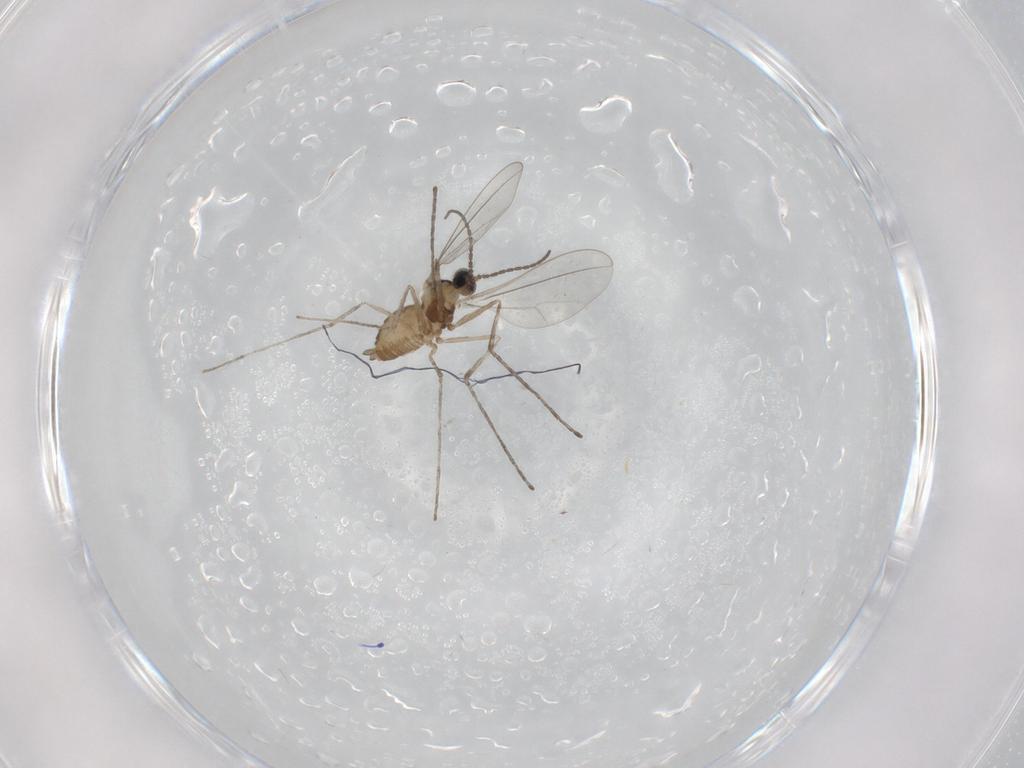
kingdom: Animalia
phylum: Arthropoda
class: Insecta
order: Diptera
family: Cecidomyiidae
